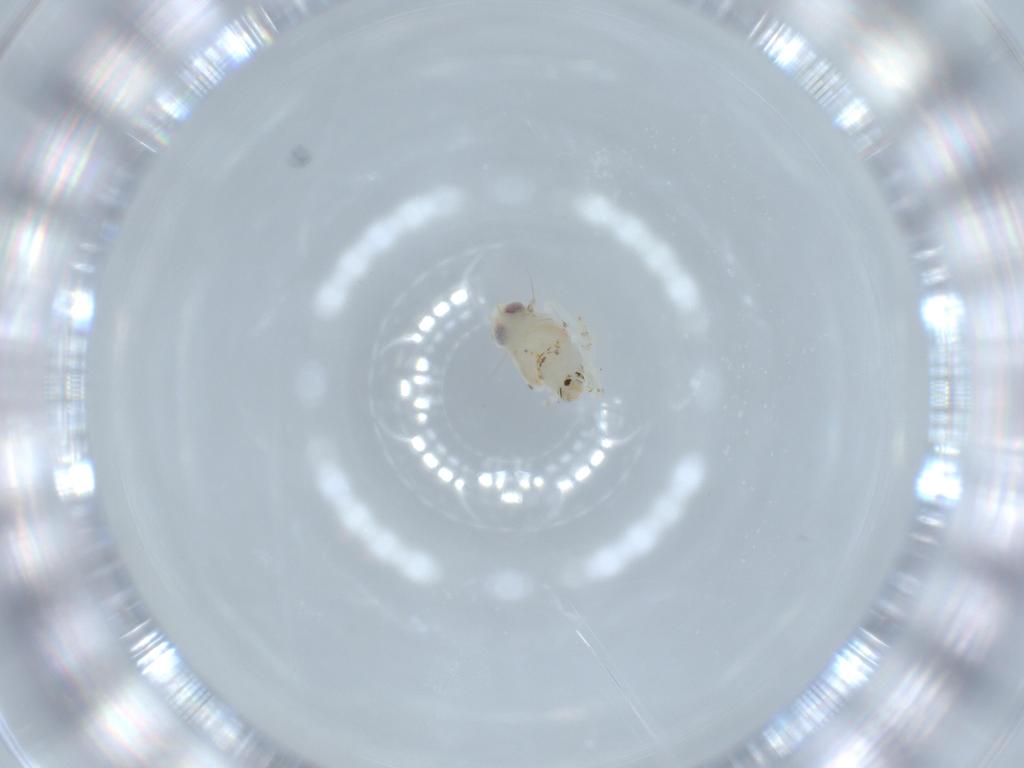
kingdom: Animalia
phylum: Arthropoda
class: Insecta
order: Hemiptera
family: Nogodinidae
